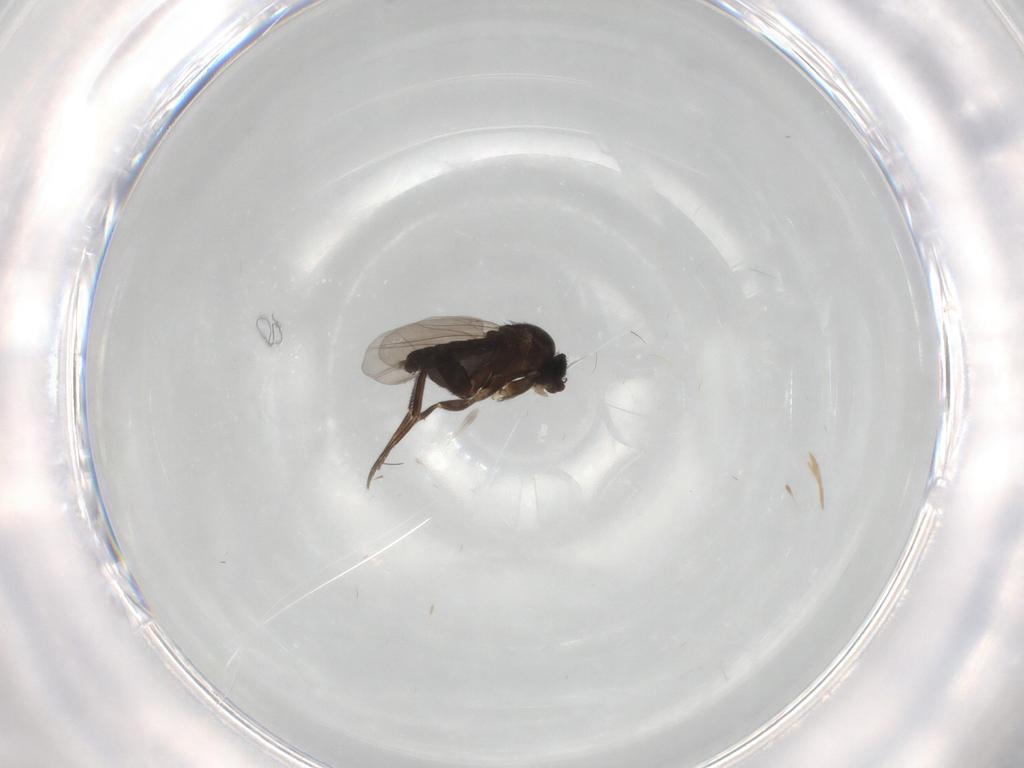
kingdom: Animalia
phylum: Arthropoda
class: Insecta
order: Diptera
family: Phoridae
